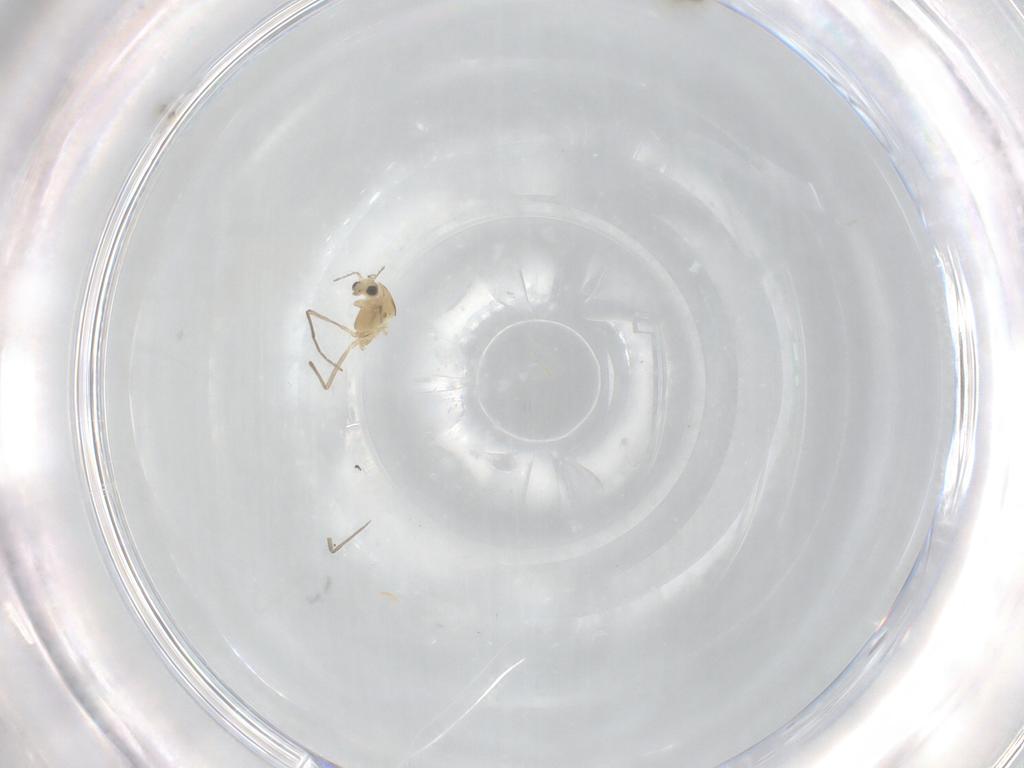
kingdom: Animalia
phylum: Arthropoda
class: Insecta
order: Diptera
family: Chironomidae
